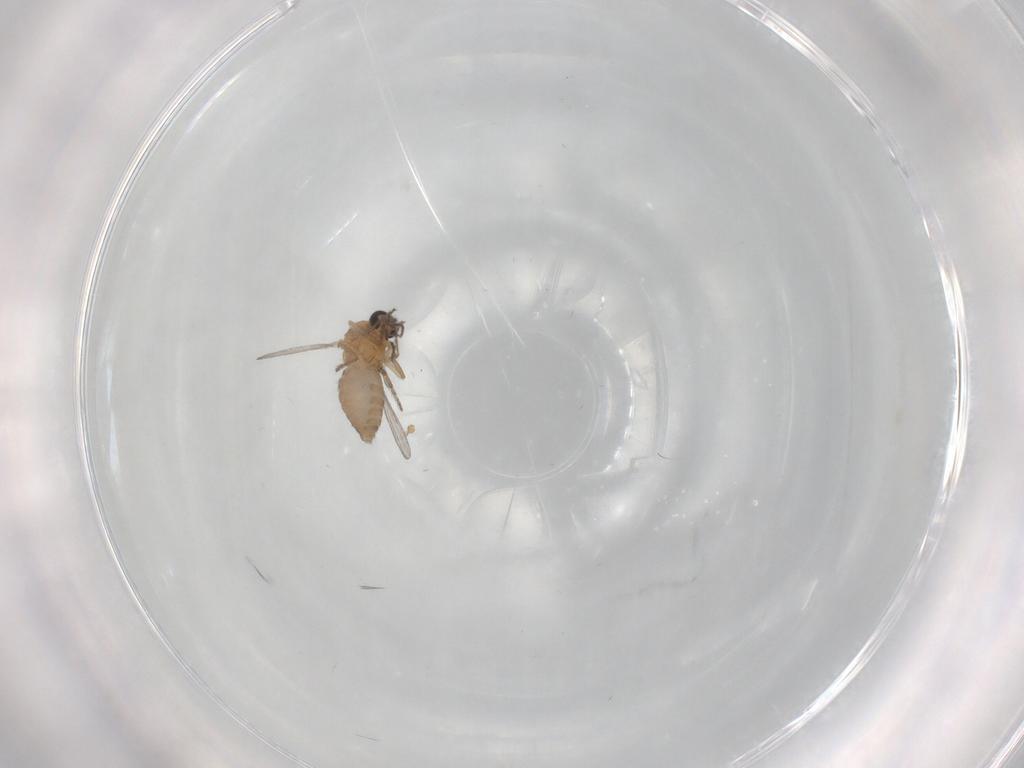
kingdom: Animalia
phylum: Arthropoda
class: Insecta
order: Diptera
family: Ceratopogonidae
